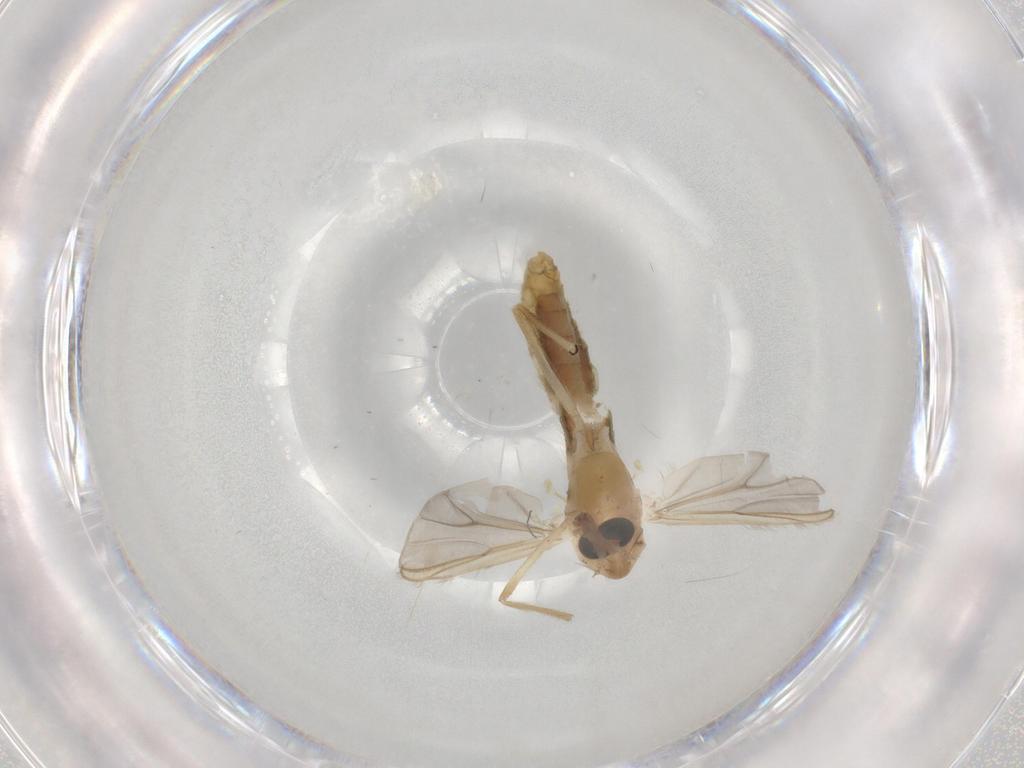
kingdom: Animalia
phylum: Arthropoda
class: Insecta
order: Diptera
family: Chironomidae
